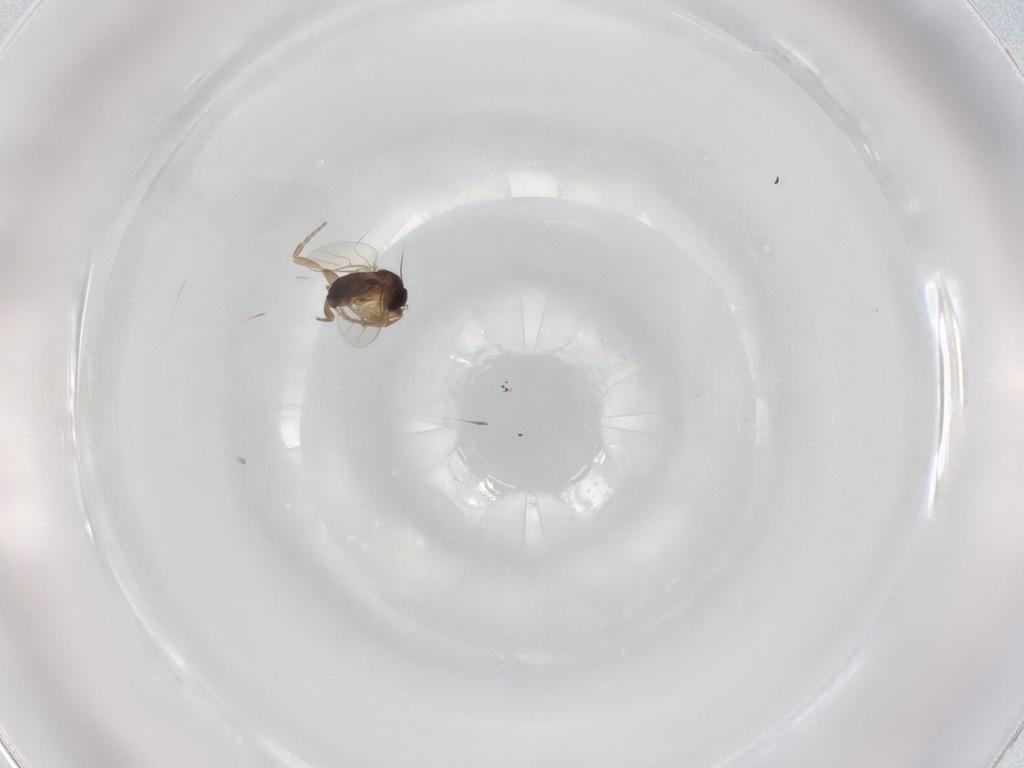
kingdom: Animalia
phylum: Arthropoda
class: Insecta
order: Diptera
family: Phoridae
